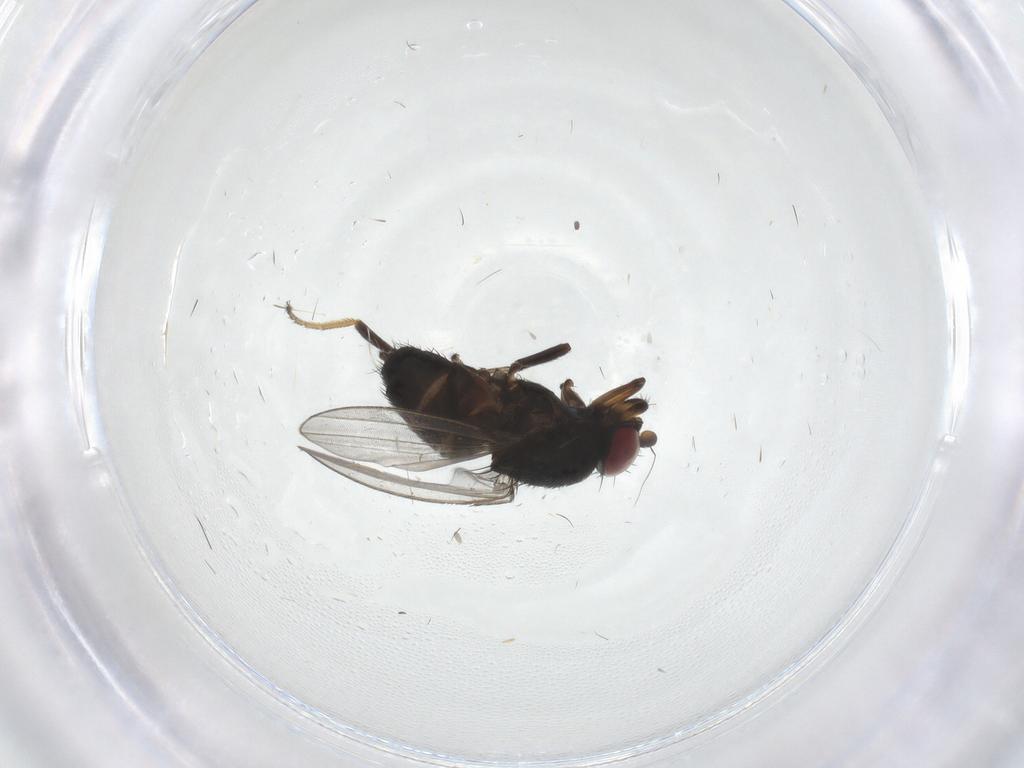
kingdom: Animalia
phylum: Arthropoda
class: Insecta
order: Diptera
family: Milichiidae
